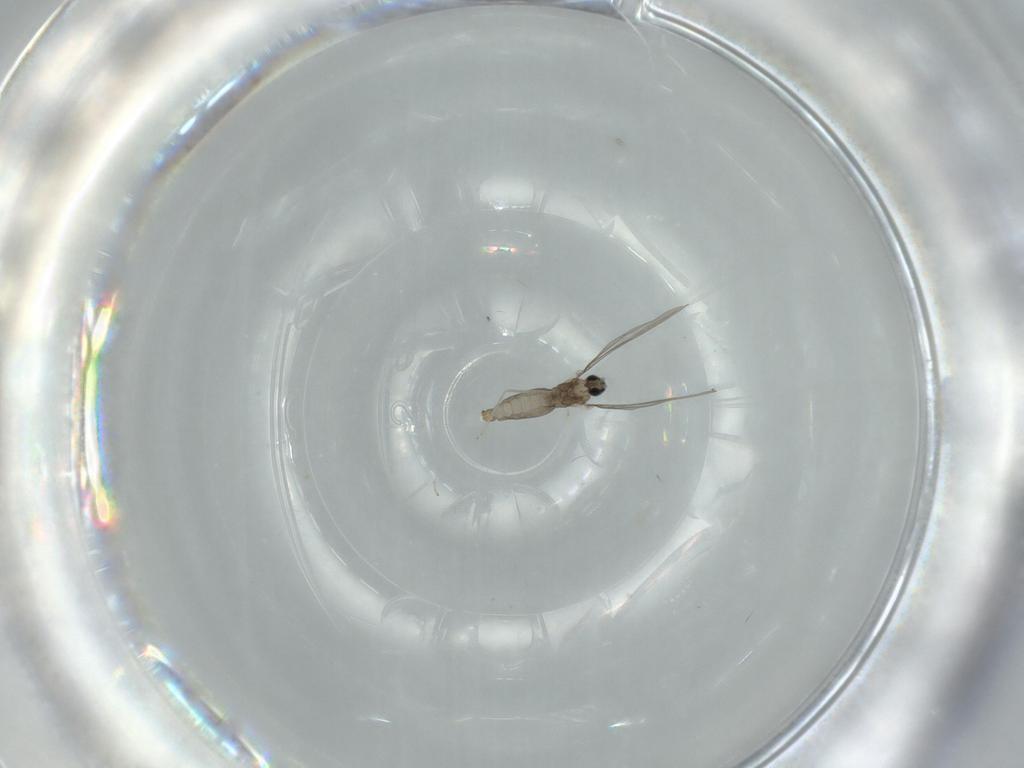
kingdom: Animalia
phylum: Arthropoda
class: Insecta
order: Diptera
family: Cecidomyiidae
